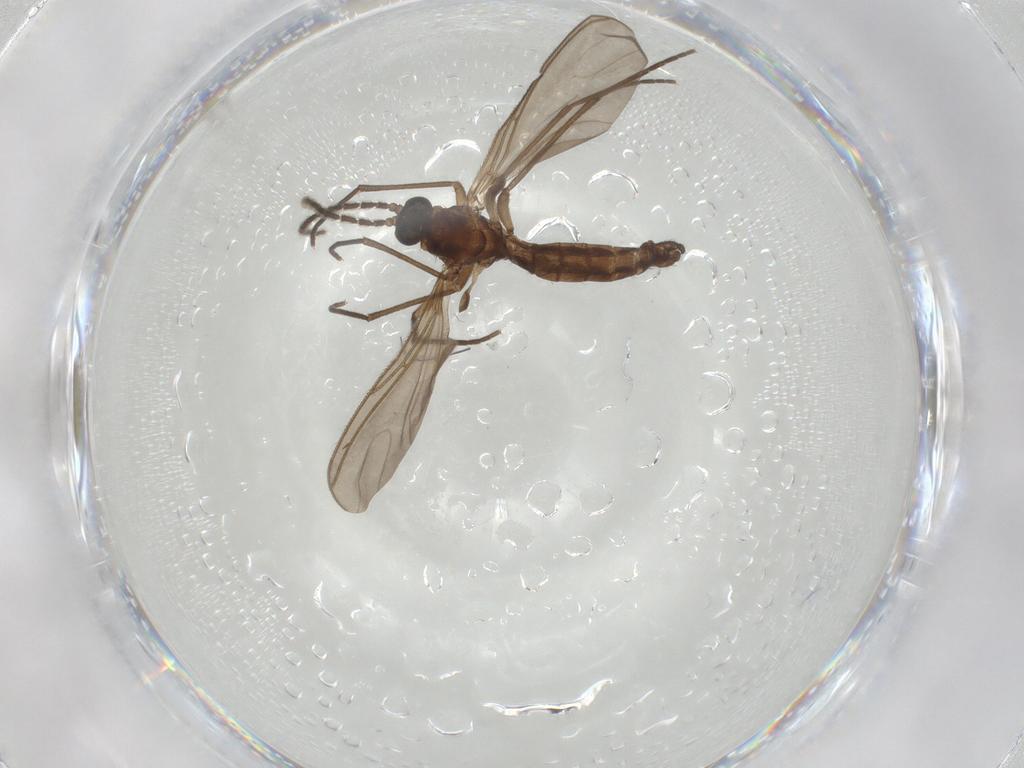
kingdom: Animalia
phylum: Arthropoda
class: Insecta
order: Diptera
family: Sciaridae
